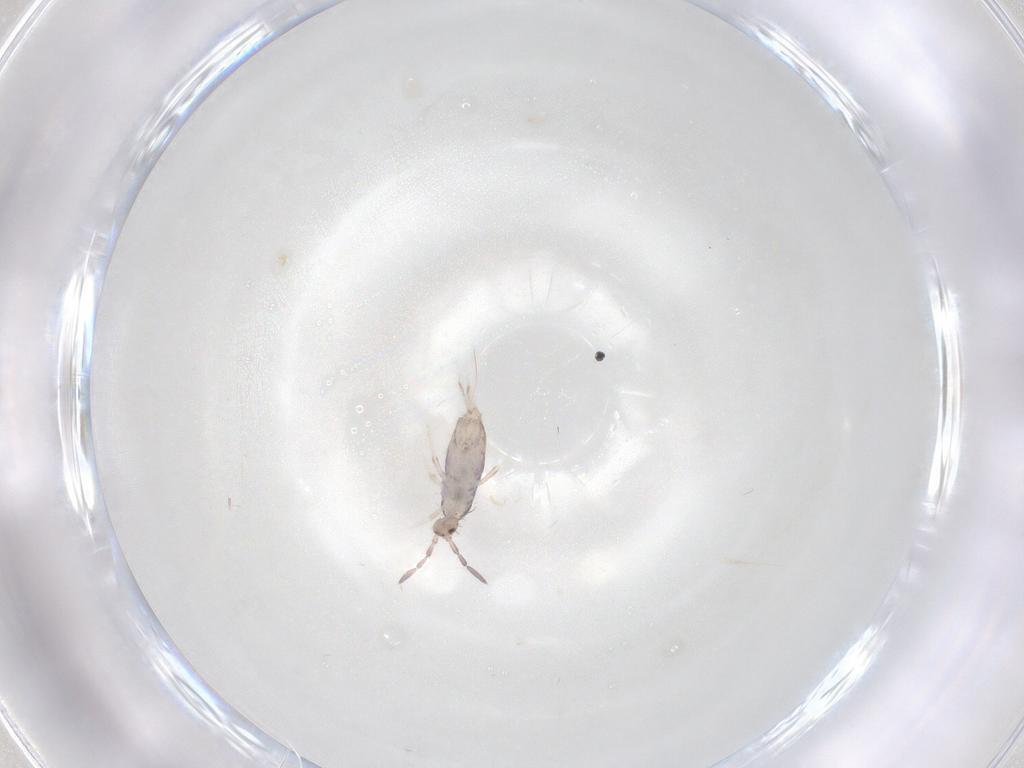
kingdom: Animalia
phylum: Arthropoda
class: Collembola
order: Poduromorpha
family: Hypogastruridae
